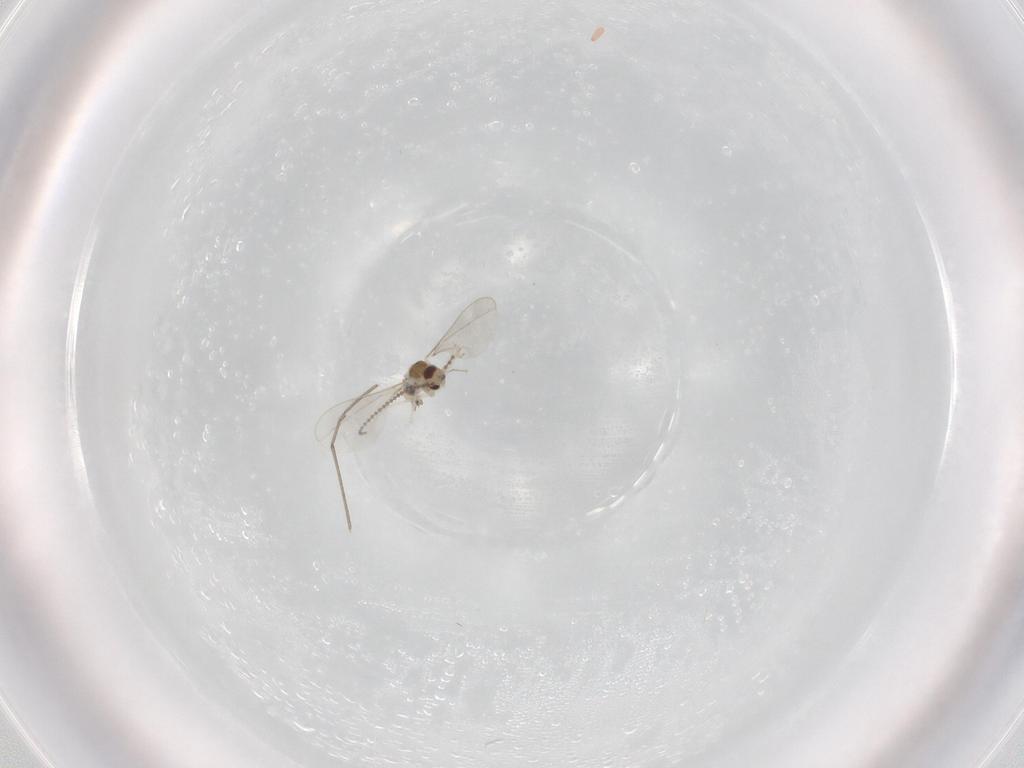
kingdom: Animalia
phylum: Arthropoda
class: Insecta
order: Diptera
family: Cecidomyiidae
